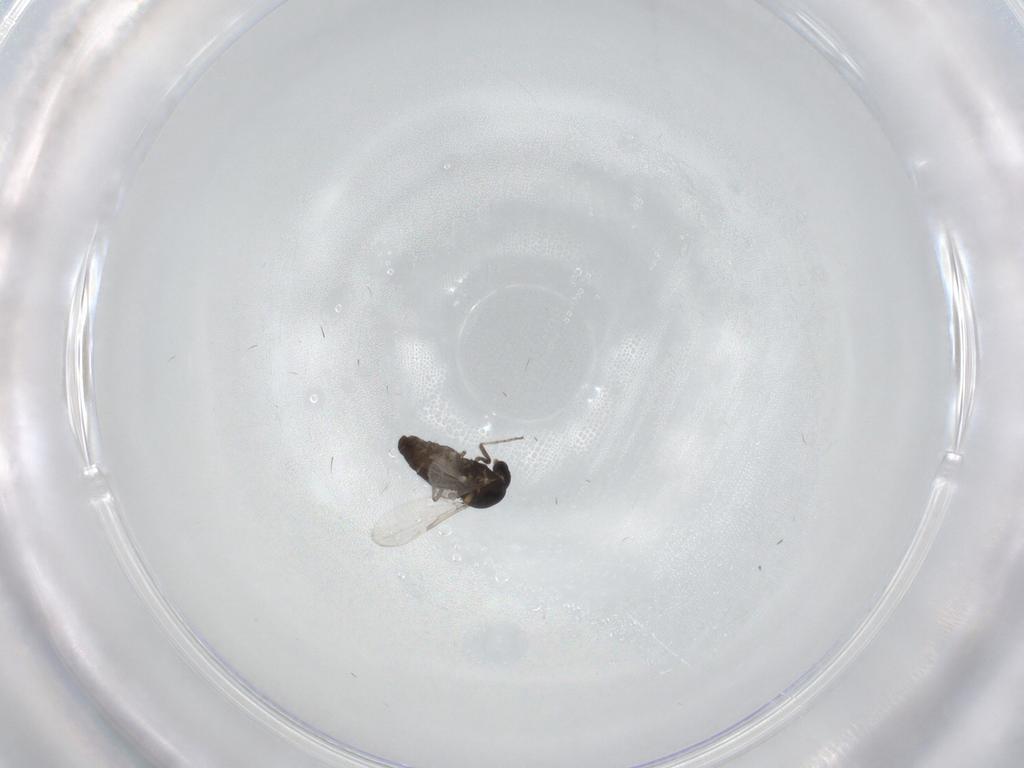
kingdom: Animalia
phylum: Arthropoda
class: Insecta
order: Diptera
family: Ceratopogonidae
